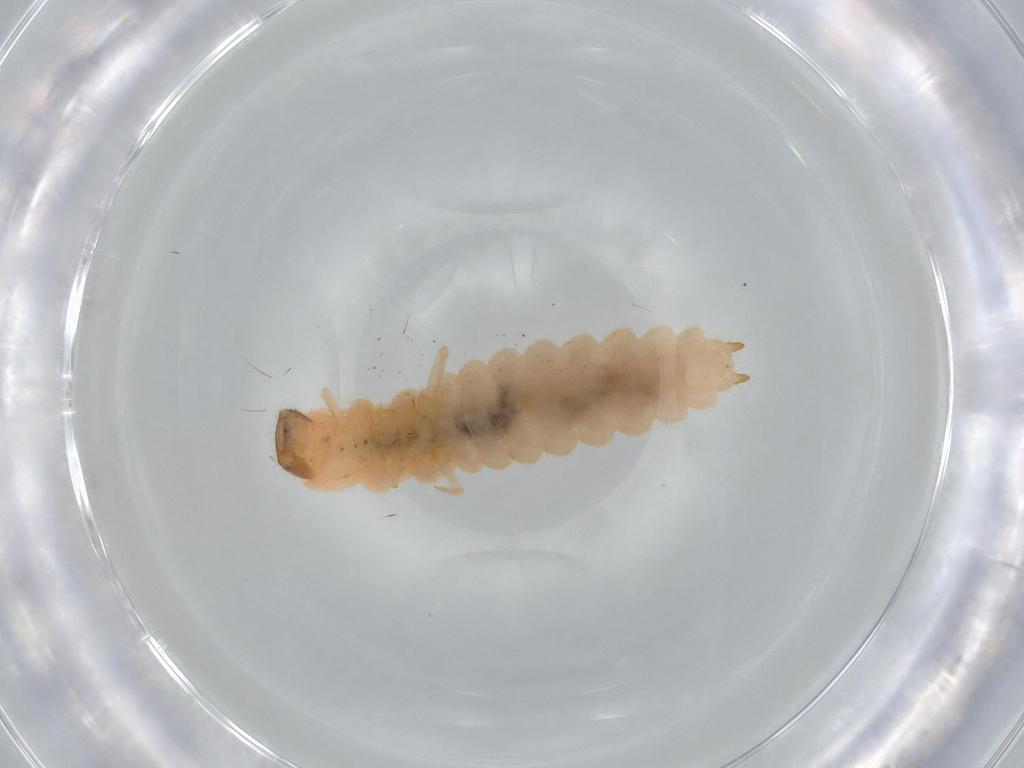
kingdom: Animalia
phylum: Arthropoda
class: Insecta
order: Coleoptera
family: Melyridae
